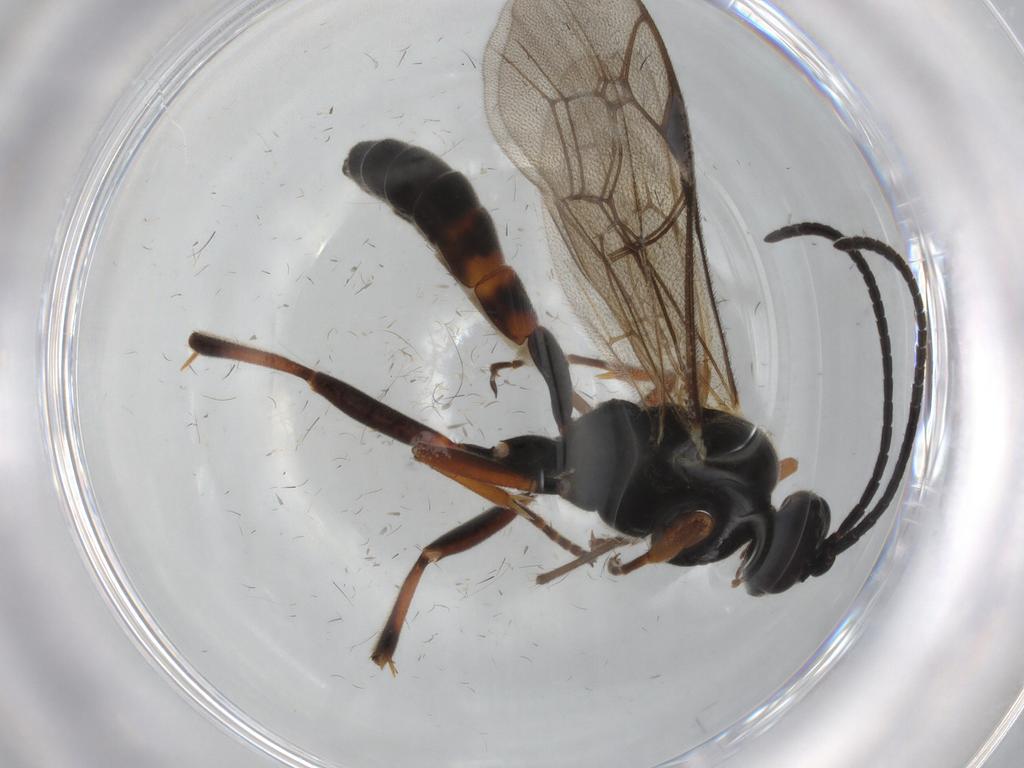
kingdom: Animalia
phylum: Arthropoda
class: Insecta
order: Hymenoptera
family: Ichneumonidae
